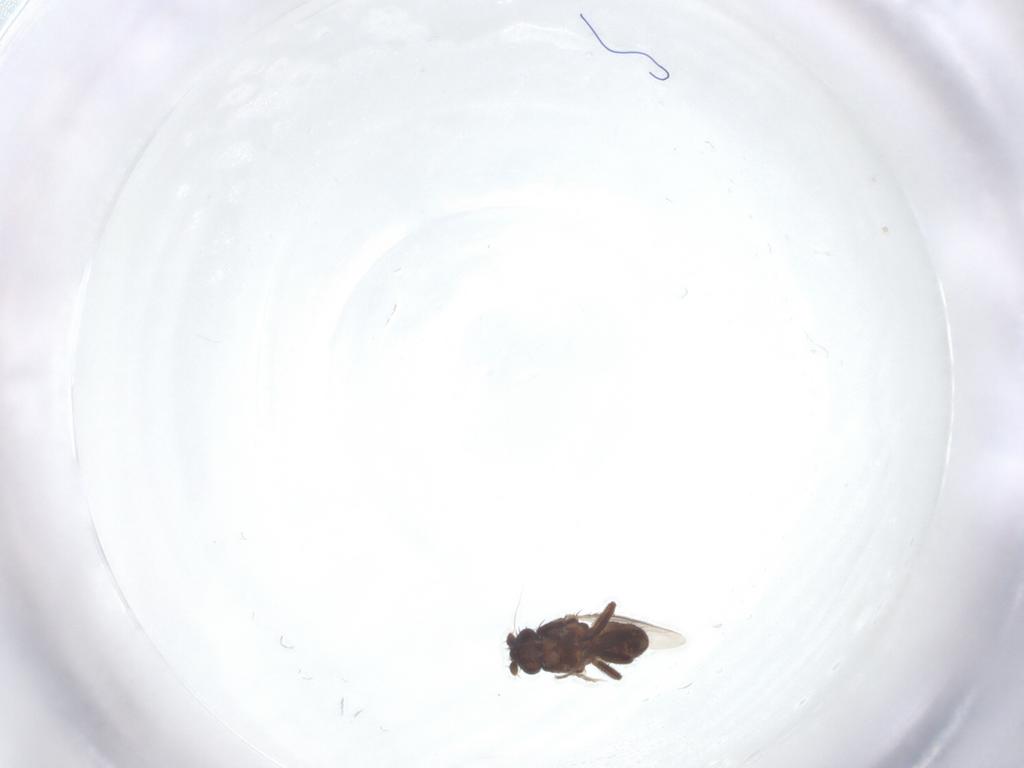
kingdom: Animalia
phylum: Arthropoda
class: Insecta
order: Diptera
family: Sphaeroceridae
